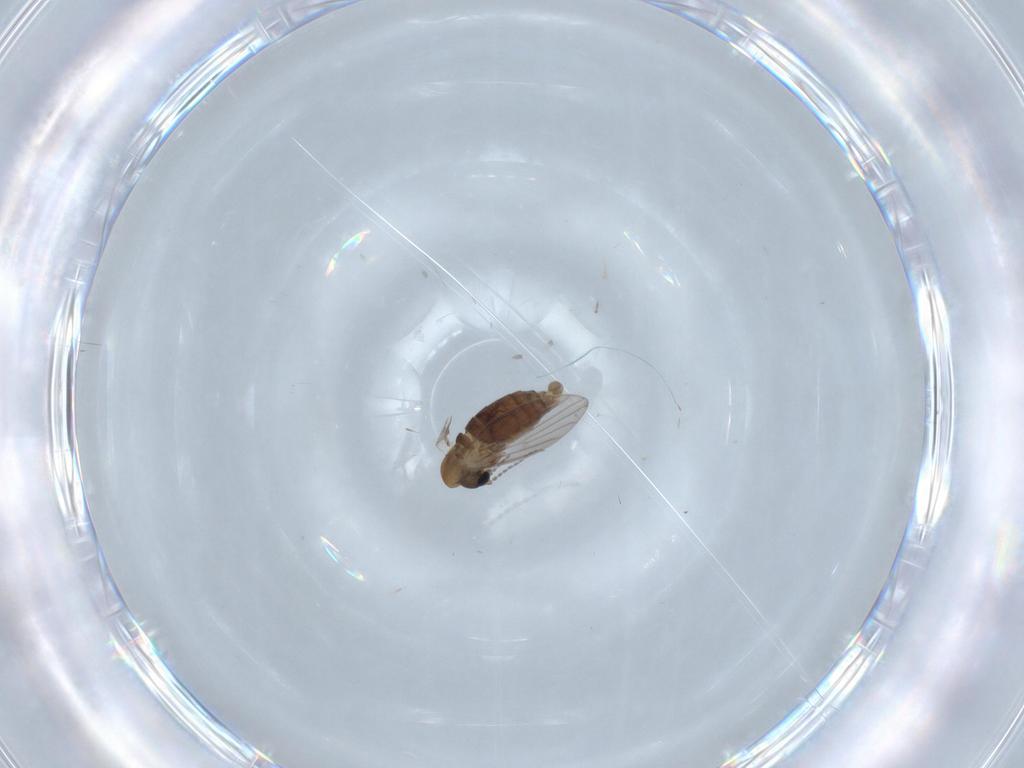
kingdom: Animalia
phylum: Arthropoda
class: Insecta
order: Diptera
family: Psychodidae
